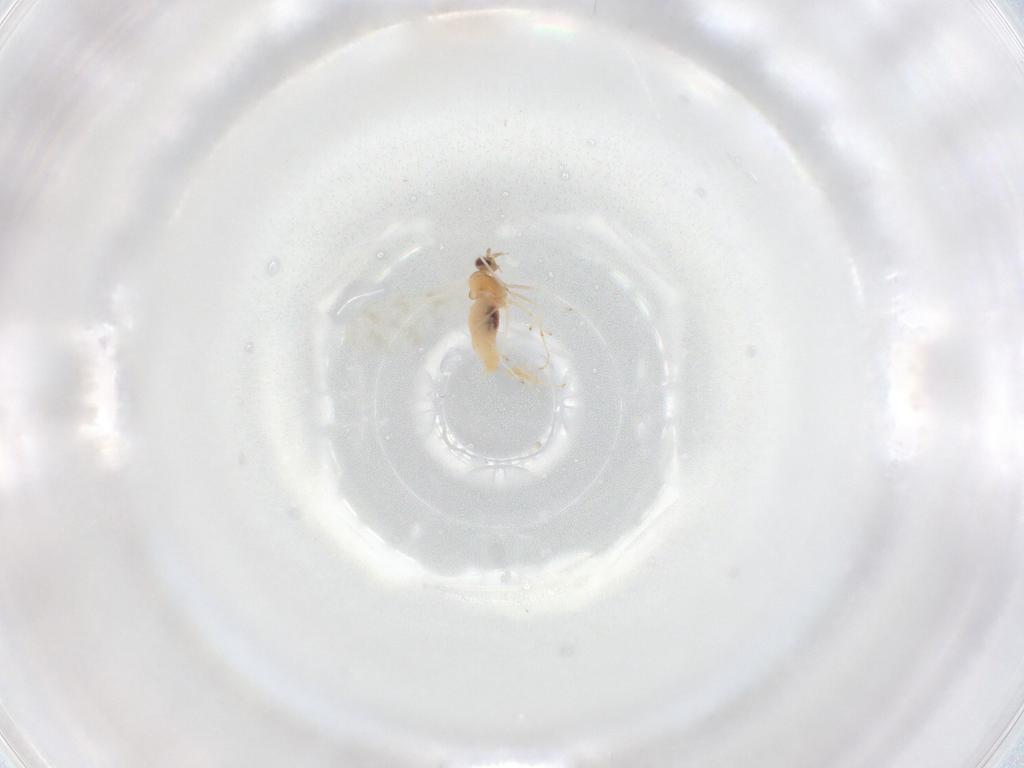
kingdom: Animalia
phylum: Arthropoda
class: Insecta
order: Diptera
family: Cecidomyiidae
